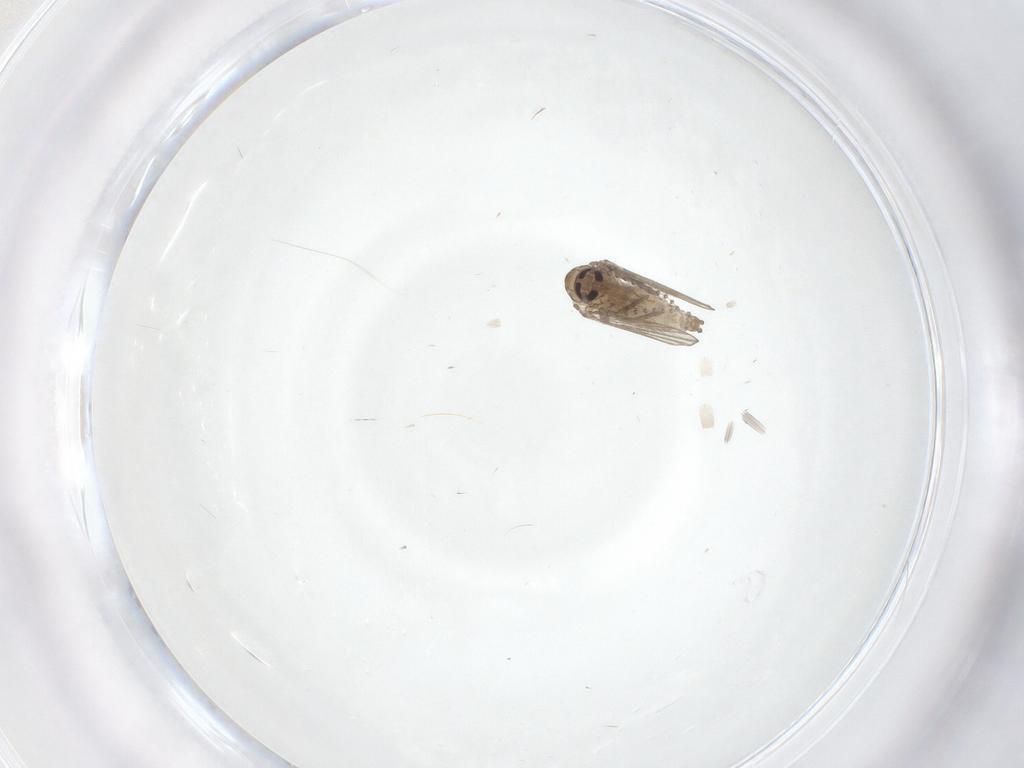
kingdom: Animalia
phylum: Arthropoda
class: Insecta
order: Diptera
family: Psychodidae
